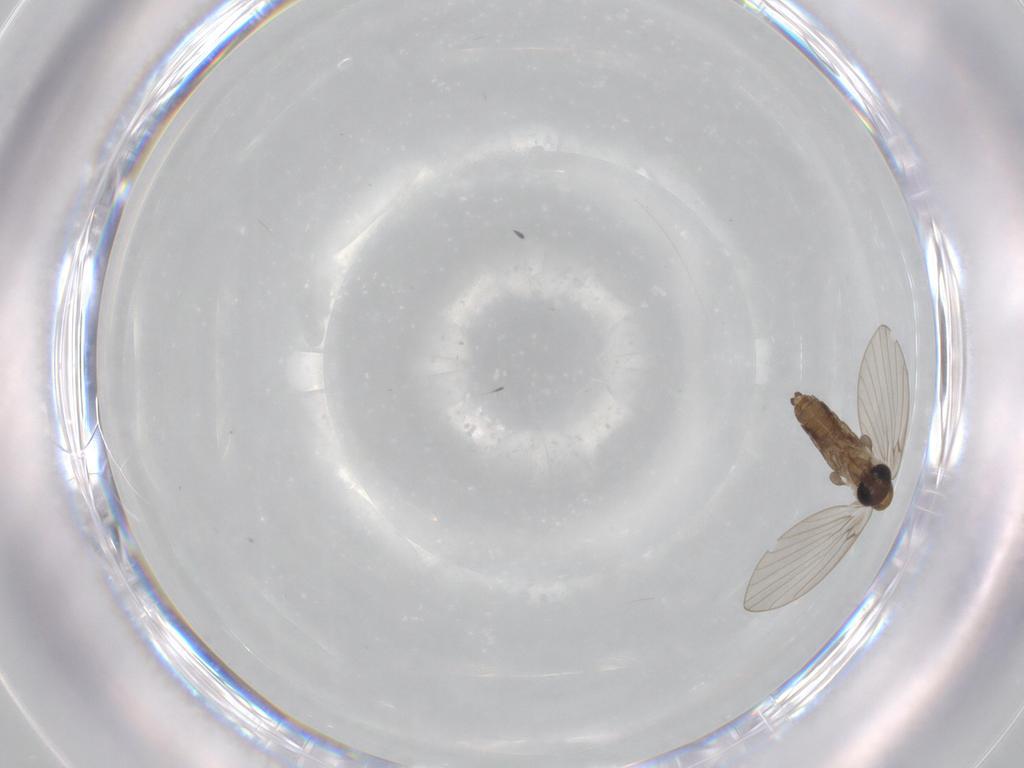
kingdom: Animalia
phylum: Arthropoda
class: Insecta
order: Diptera
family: Psychodidae
